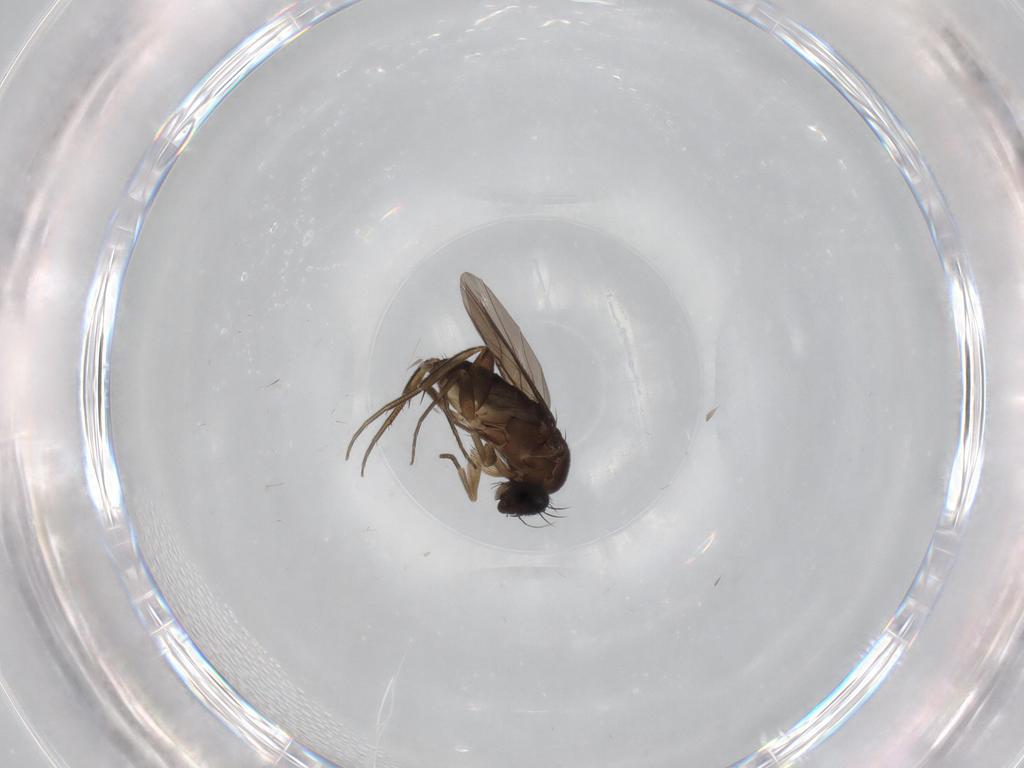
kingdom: Animalia
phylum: Arthropoda
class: Insecta
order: Diptera
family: Phoridae
